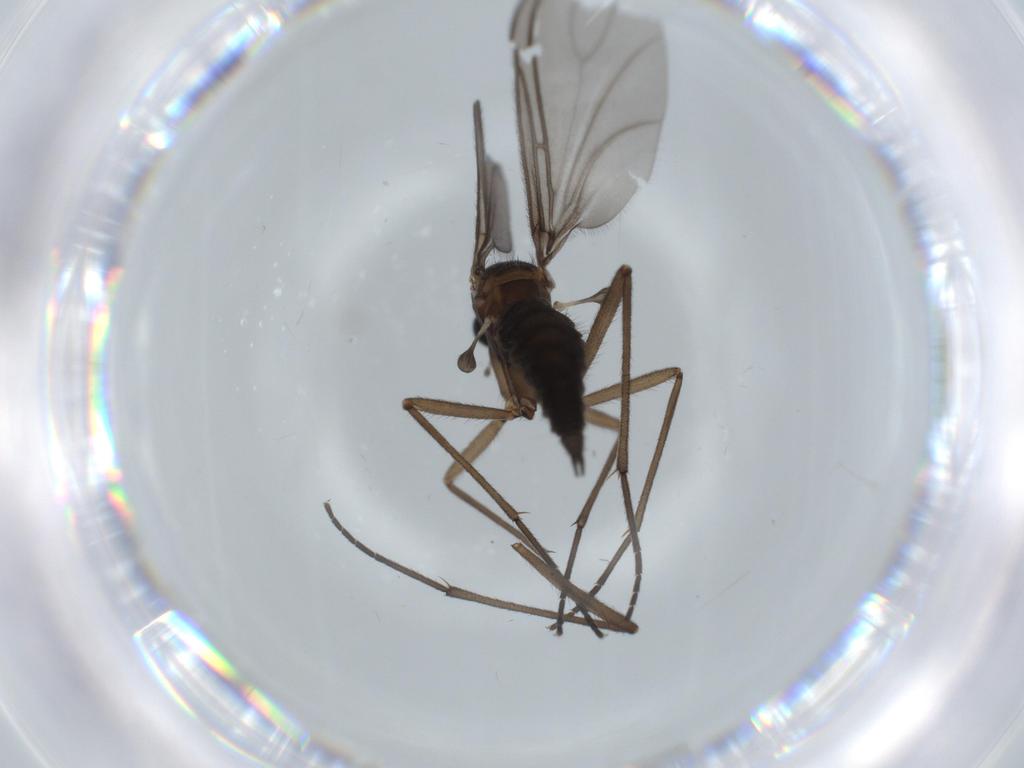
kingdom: Animalia
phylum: Arthropoda
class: Insecta
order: Diptera
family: Sciaridae
